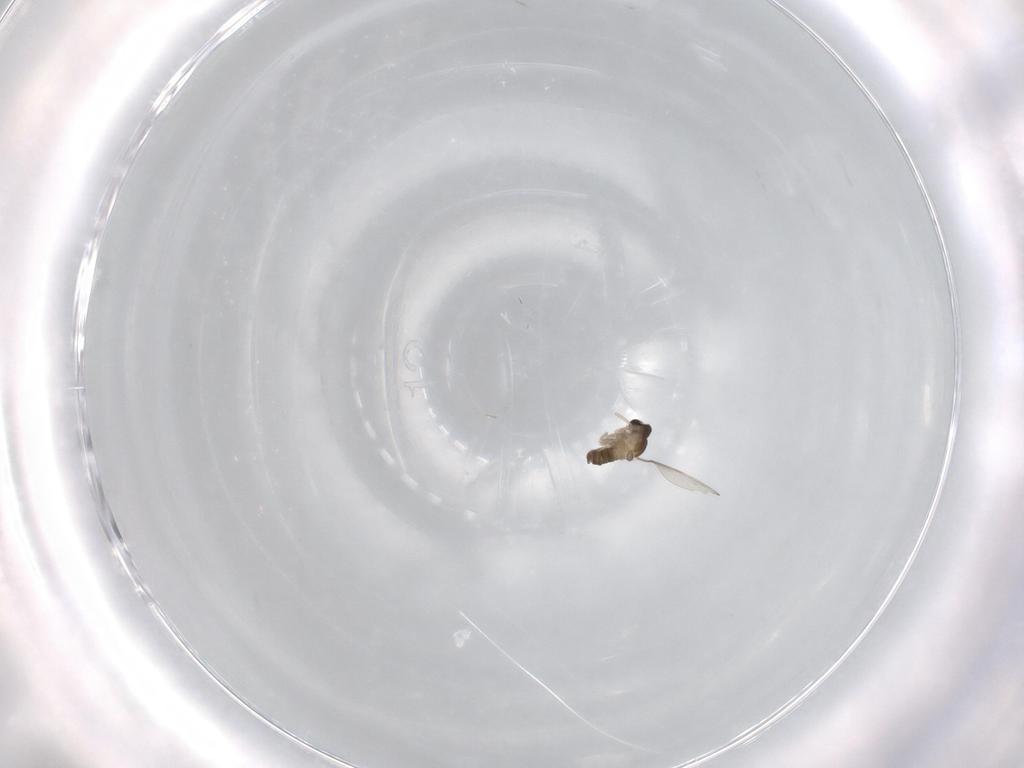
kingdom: Animalia
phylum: Arthropoda
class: Insecta
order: Diptera
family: Cecidomyiidae
